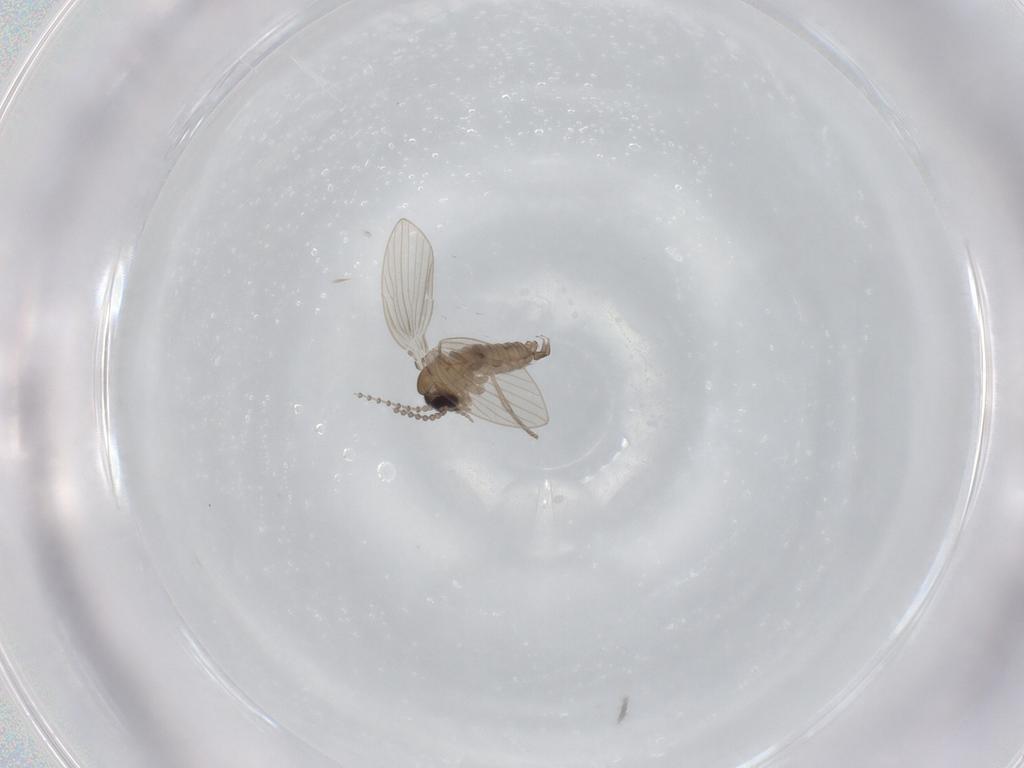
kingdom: Animalia
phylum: Arthropoda
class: Insecta
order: Diptera
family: Psychodidae
